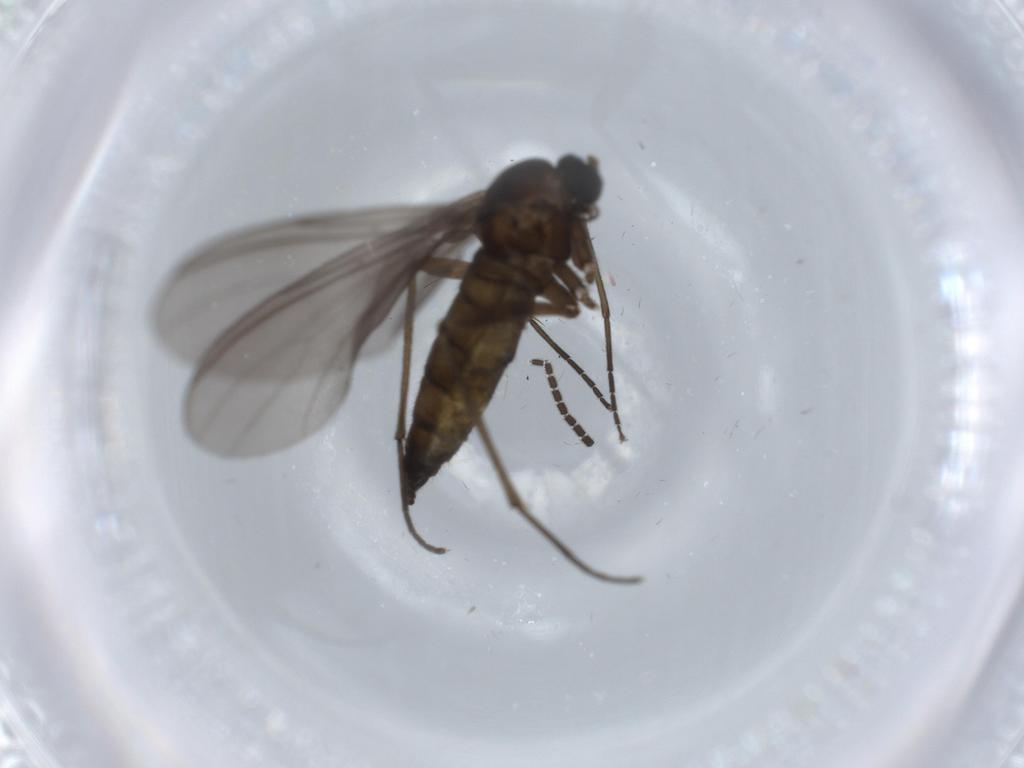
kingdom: Animalia
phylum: Arthropoda
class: Insecta
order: Diptera
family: Sciaridae
